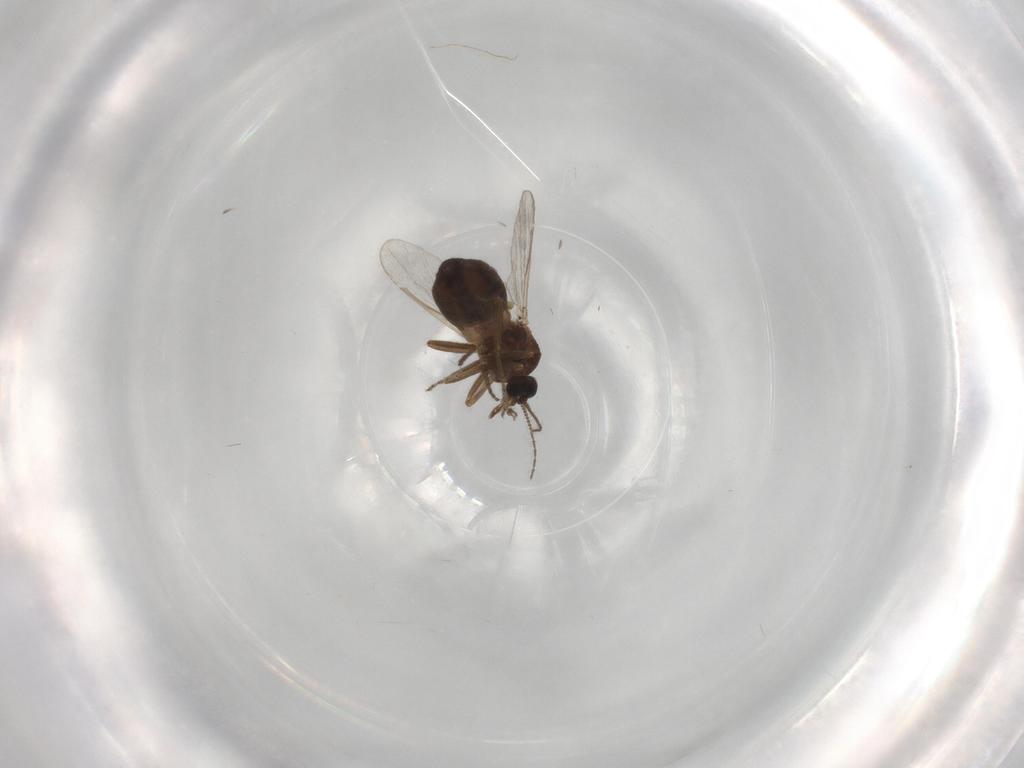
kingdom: Animalia
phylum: Arthropoda
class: Insecta
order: Diptera
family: Ceratopogonidae
